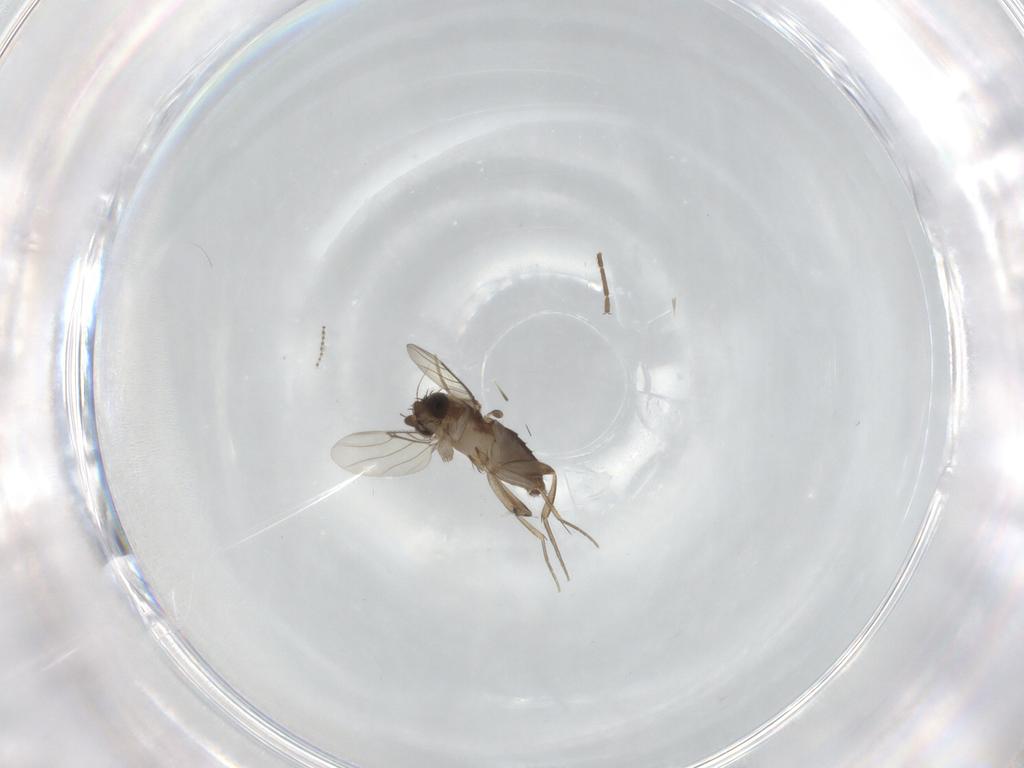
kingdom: Animalia
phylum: Arthropoda
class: Insecta
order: Diptera
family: Phoridae
